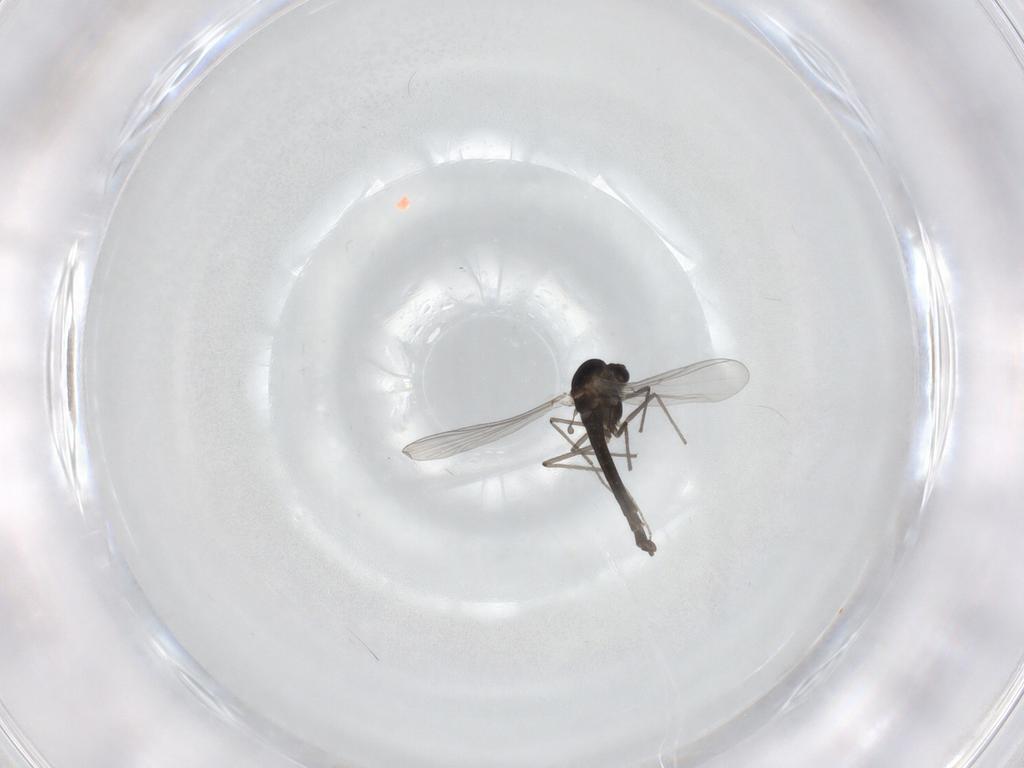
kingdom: Animalia
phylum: Arthropoda
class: Insecta
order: Diptera
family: Chironomidae
